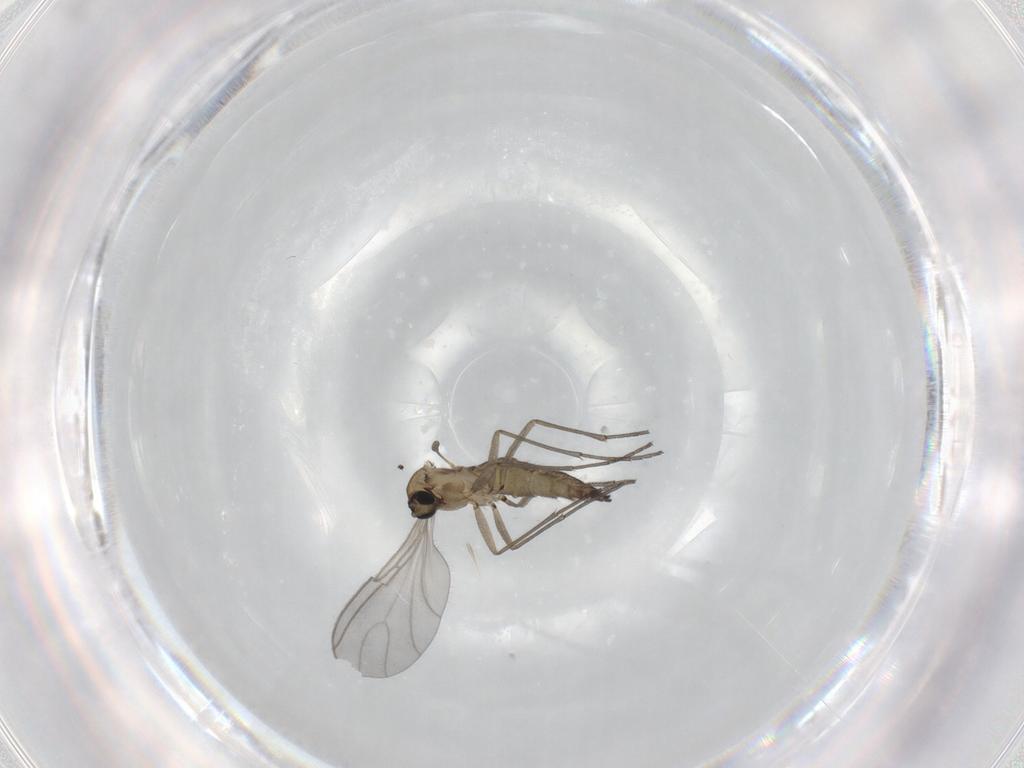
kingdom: Animalia
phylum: Arthropoda
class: Insecta
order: Diptera
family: Sciaridae
